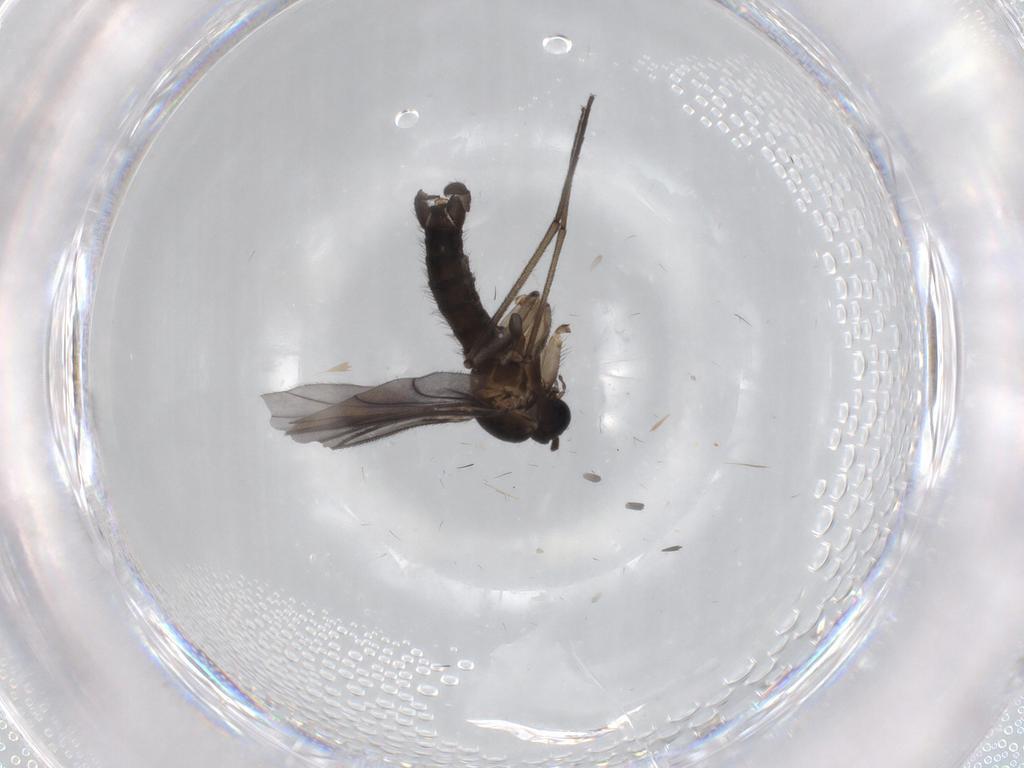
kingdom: Animalia
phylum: Arthropoda
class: Insecta
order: Diptera
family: Sciaridae
